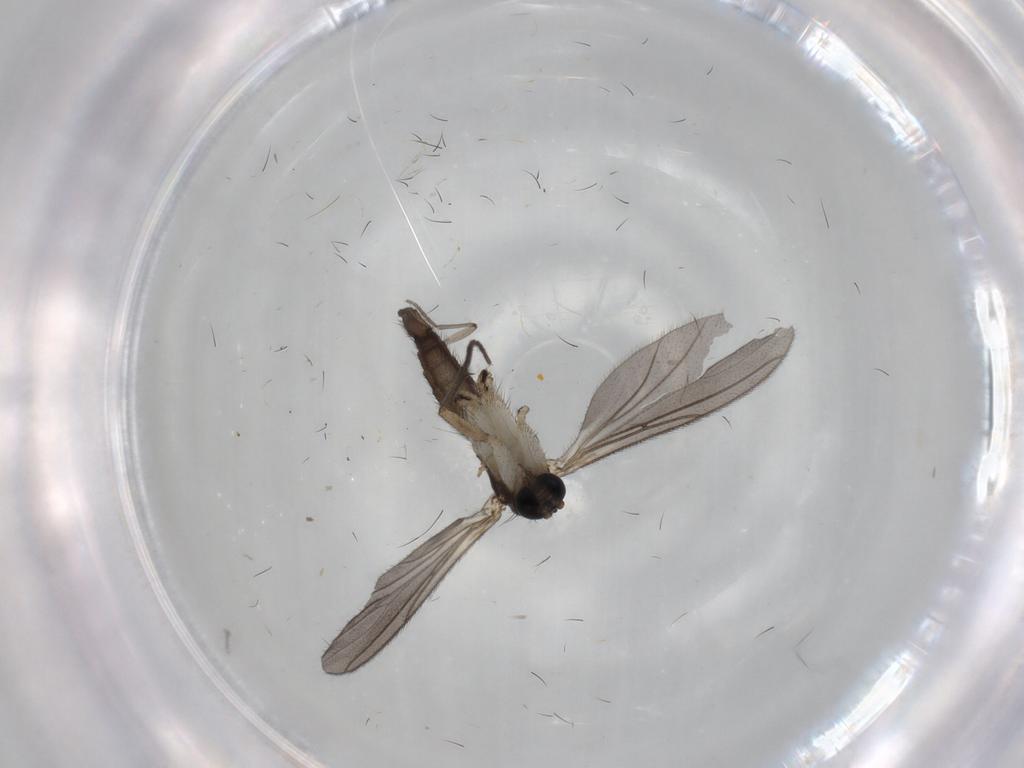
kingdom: Animalia
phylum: Arthropoda
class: Insecta
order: Diptera
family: Sciaridae
